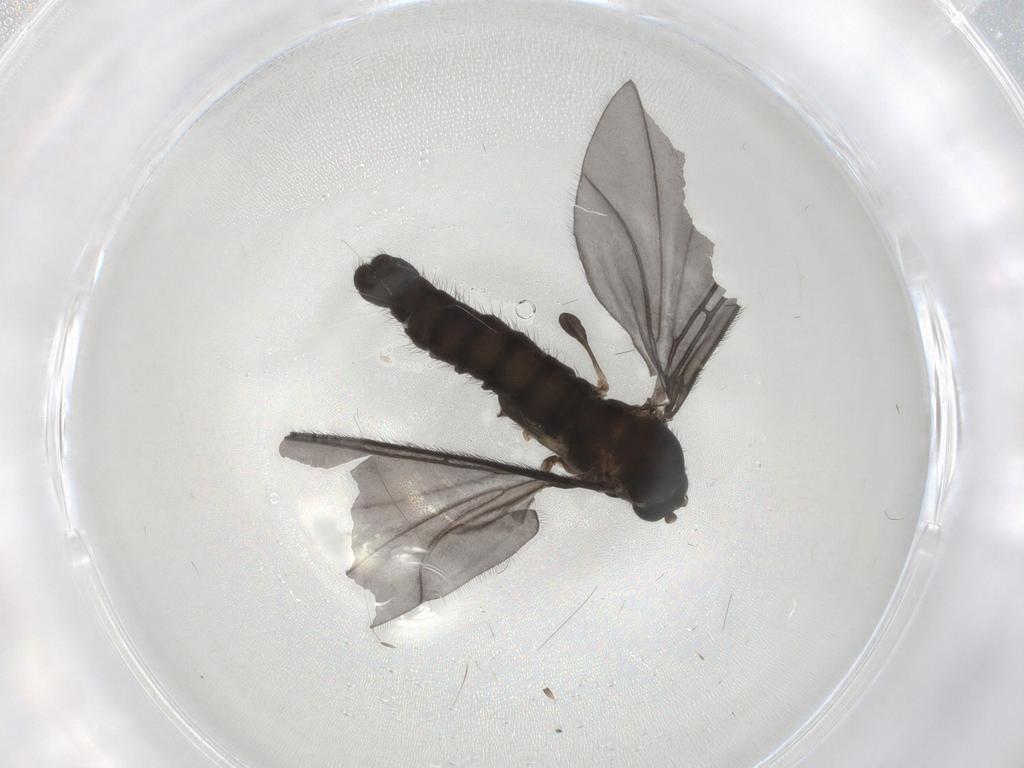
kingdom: Animalia
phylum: Arthropoda
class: Insecta
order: Diptera
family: Sciaridae
